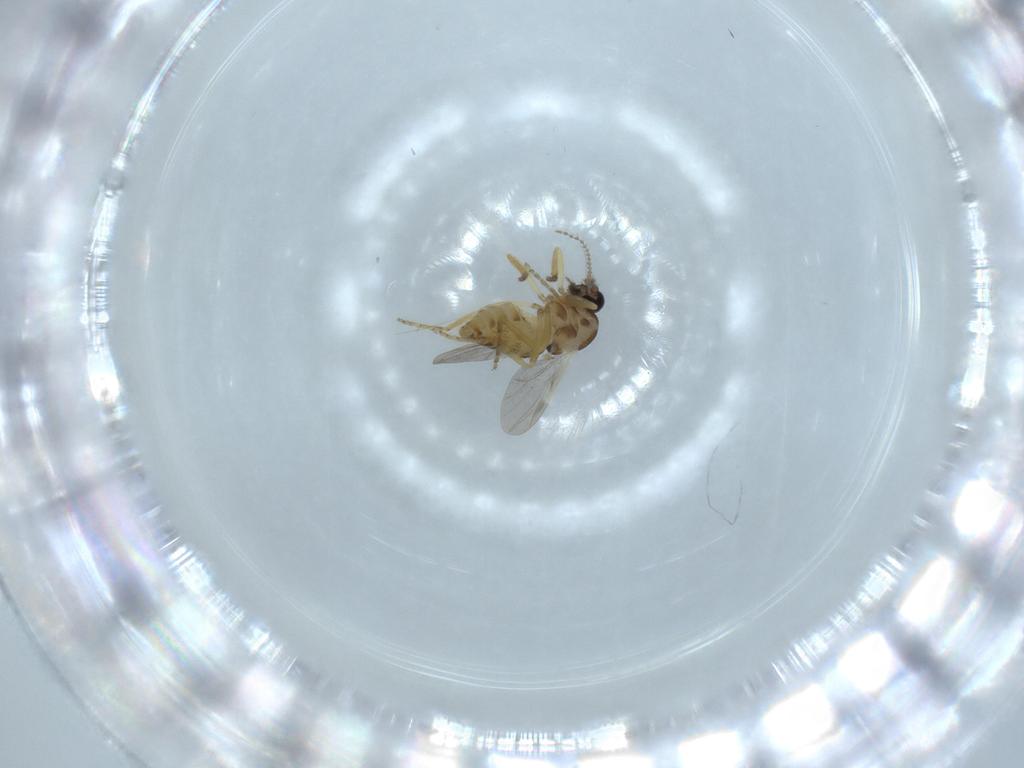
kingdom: Animalia
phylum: Arthropoda
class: Insecta
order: Diptera
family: Ceratopogonidae
